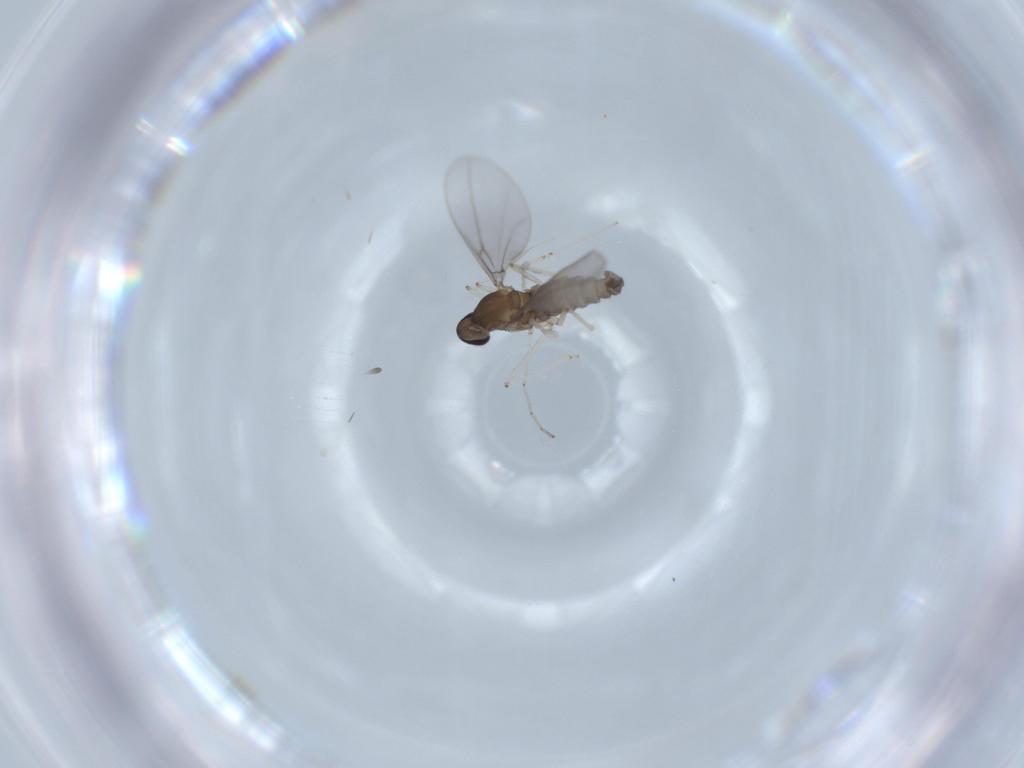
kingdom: Animalia
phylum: Arthropoda
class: Insecta
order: Diptera
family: Cecidomyiidae
